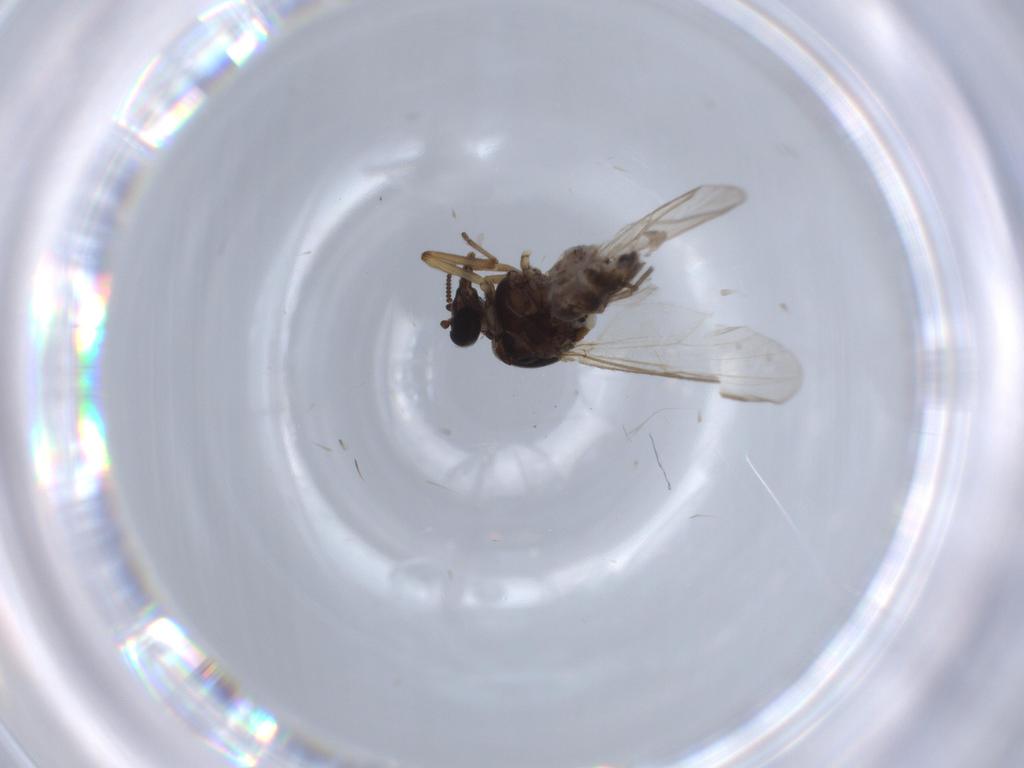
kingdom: Animalia
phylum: Arthropoda
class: Insecta
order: Diptera
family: Ceratopogonidae
